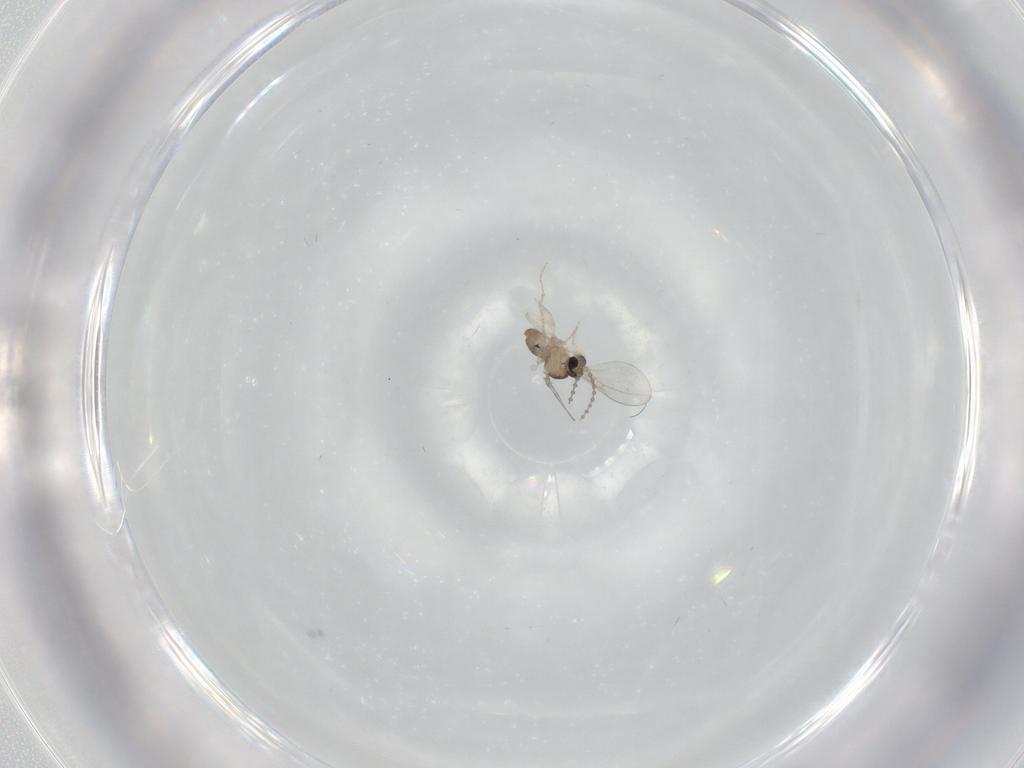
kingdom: Animalia
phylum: Arthropoda
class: Insecta
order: Diptera
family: Cecidomyiidae
